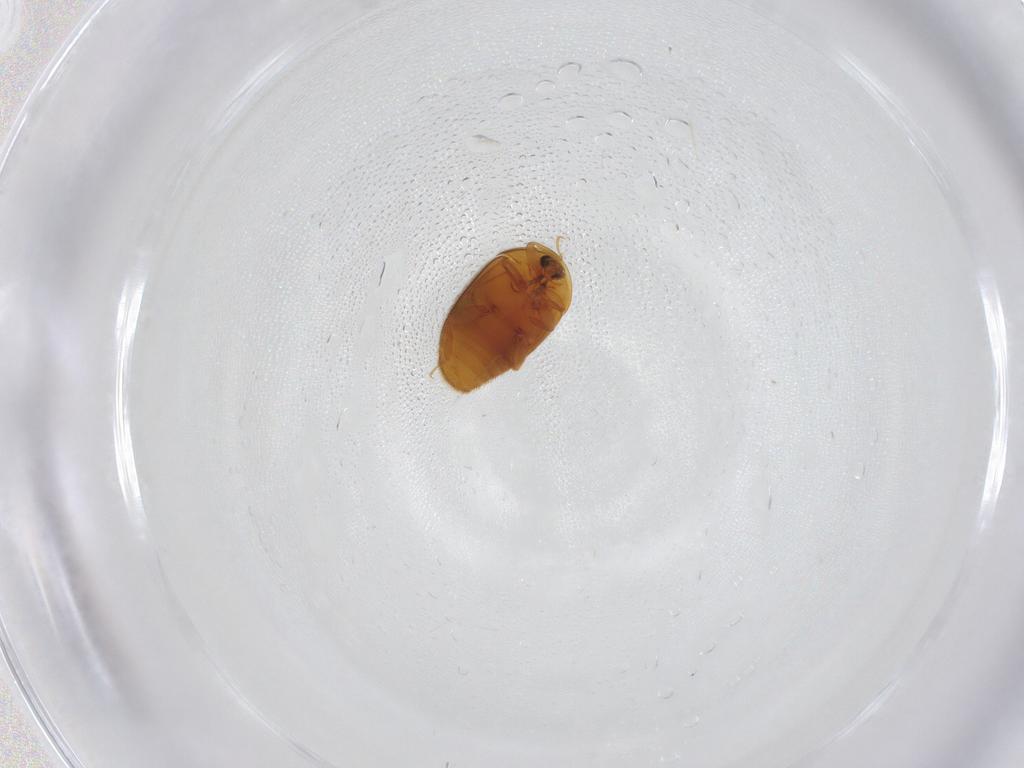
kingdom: Animalia
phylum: Arthropoda
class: Insecta
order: Coleoptera
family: Corylophidae
